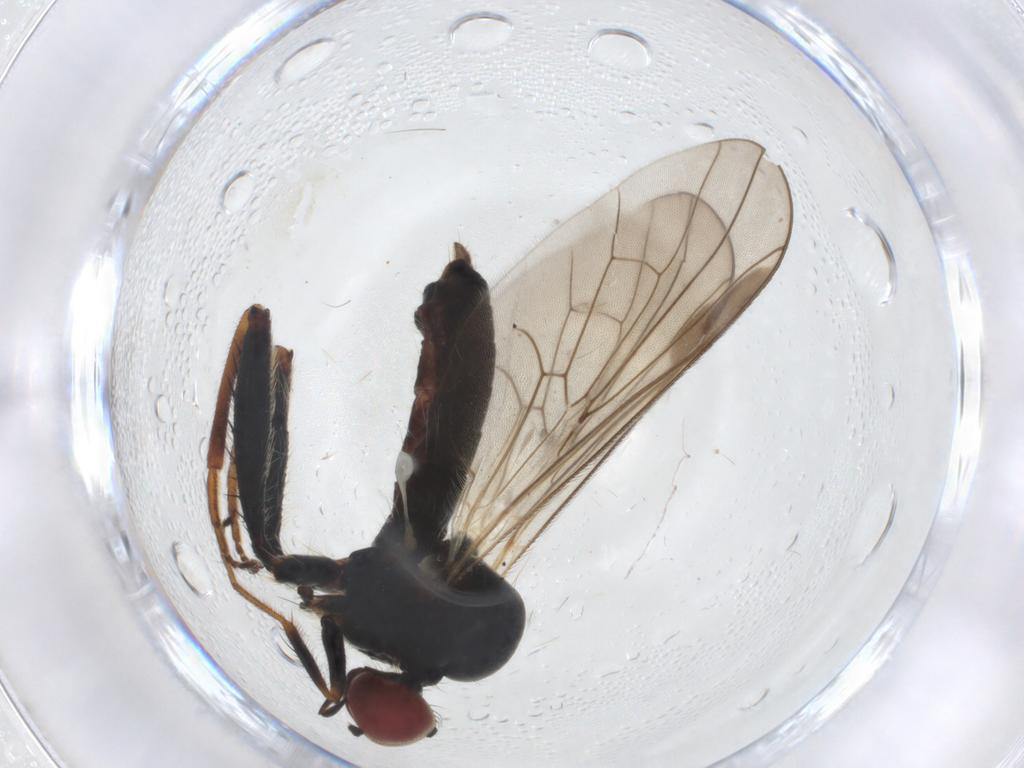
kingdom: Animalia
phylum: Arthropoda
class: Insecta
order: Diptera
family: Dolichopodidae
